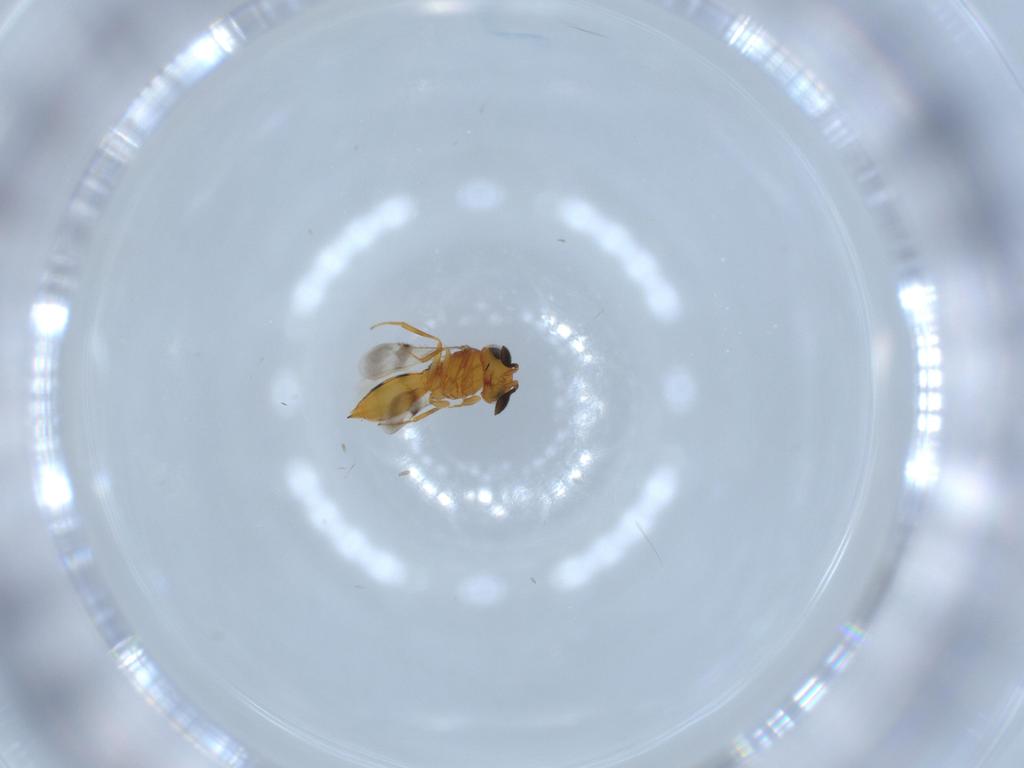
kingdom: Animalia
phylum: Arthropoda
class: Insecta
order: Hymenoptera
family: Scelionidae
